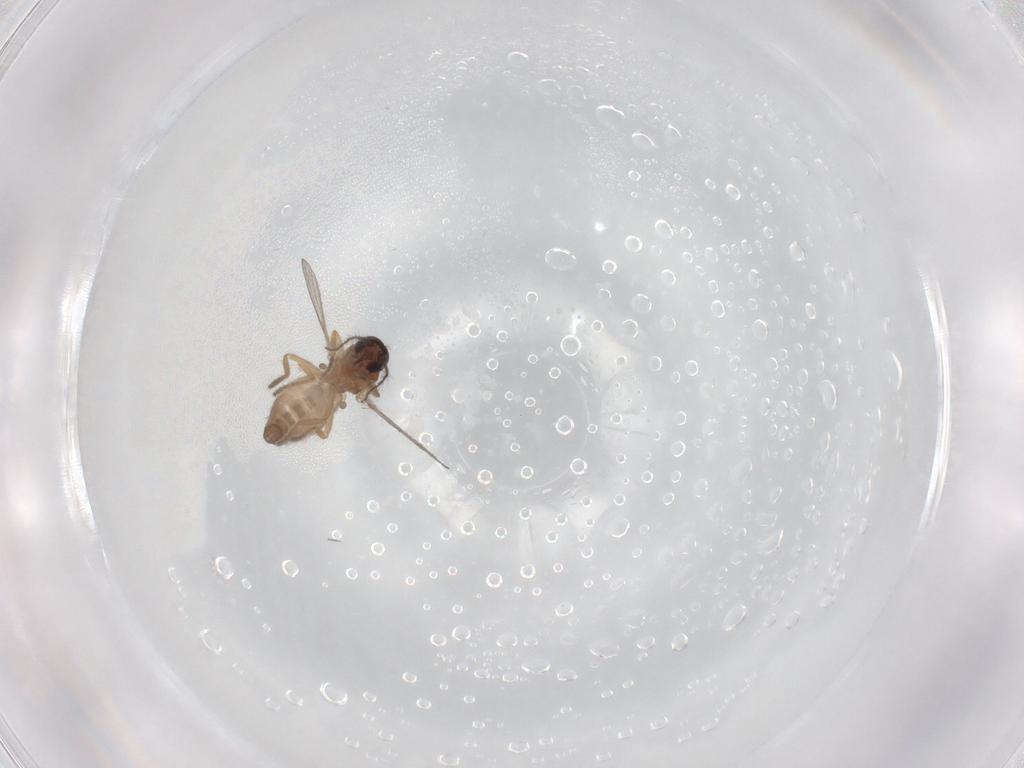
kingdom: Animalia
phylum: Arthropoda
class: Insecta
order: Diptera
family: Ceratopogonidae
